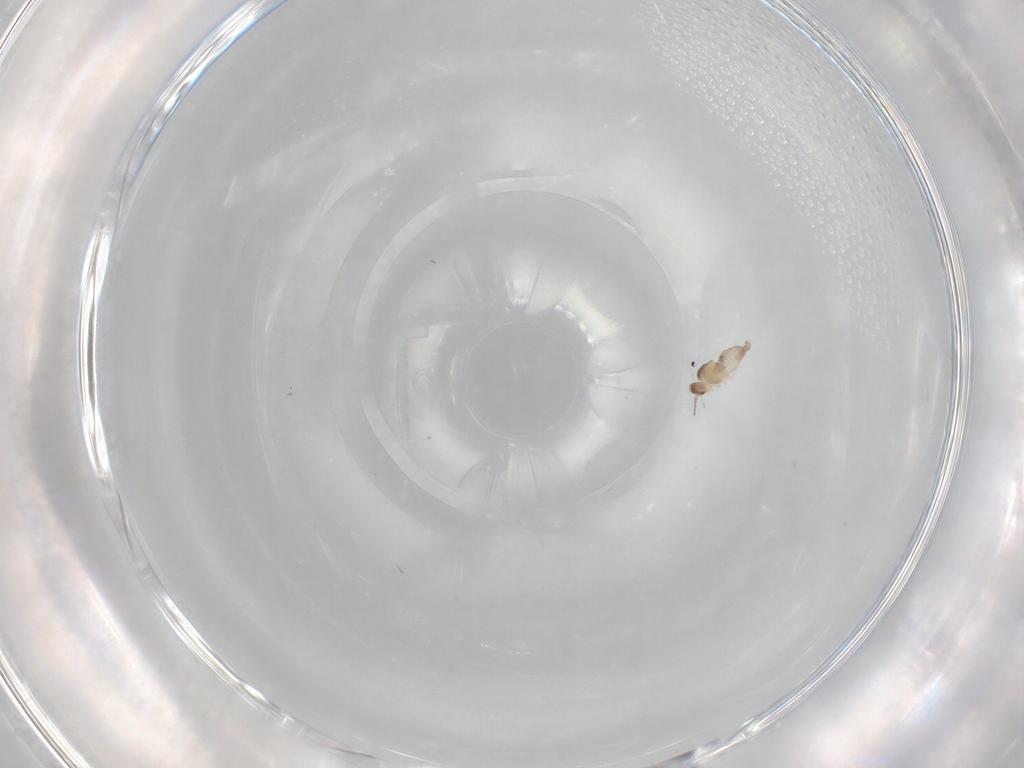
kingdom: Animalia
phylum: Arthropoda
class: Insecta
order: Diptera
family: Cecidomyiidae
